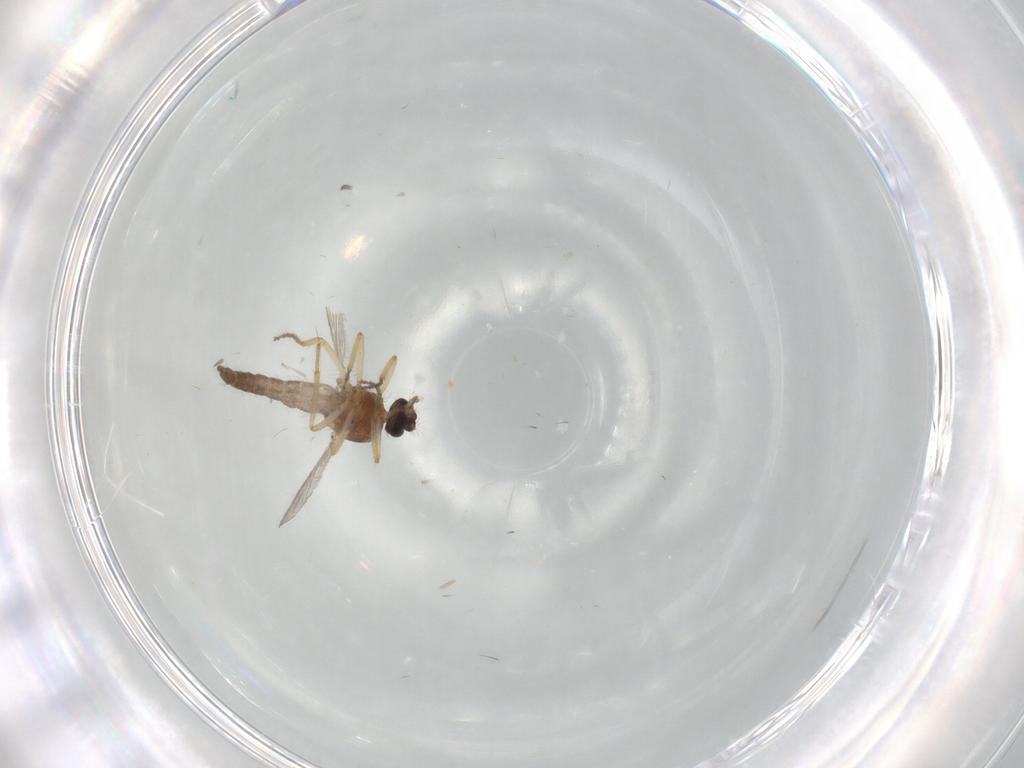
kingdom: Animalia
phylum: Arthropoda
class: Insecta
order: Diptera
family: Ceratopogonidae
